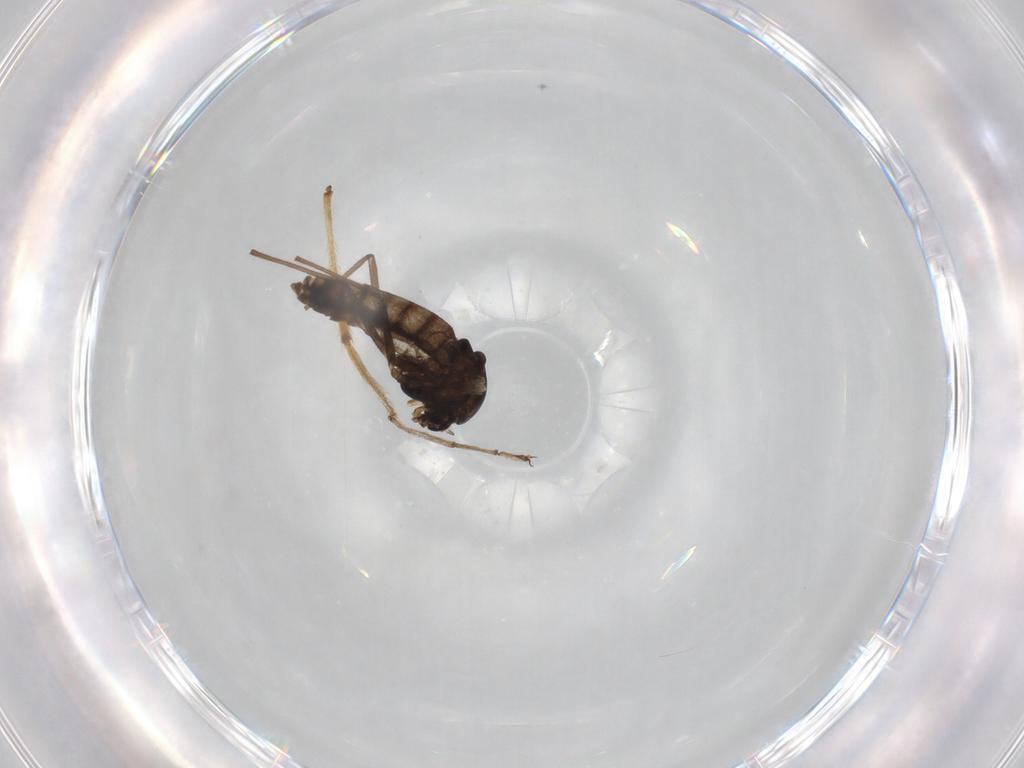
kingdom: Animalia
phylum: Arthropoda
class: Insecta
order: Diptera
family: Chironomidae
